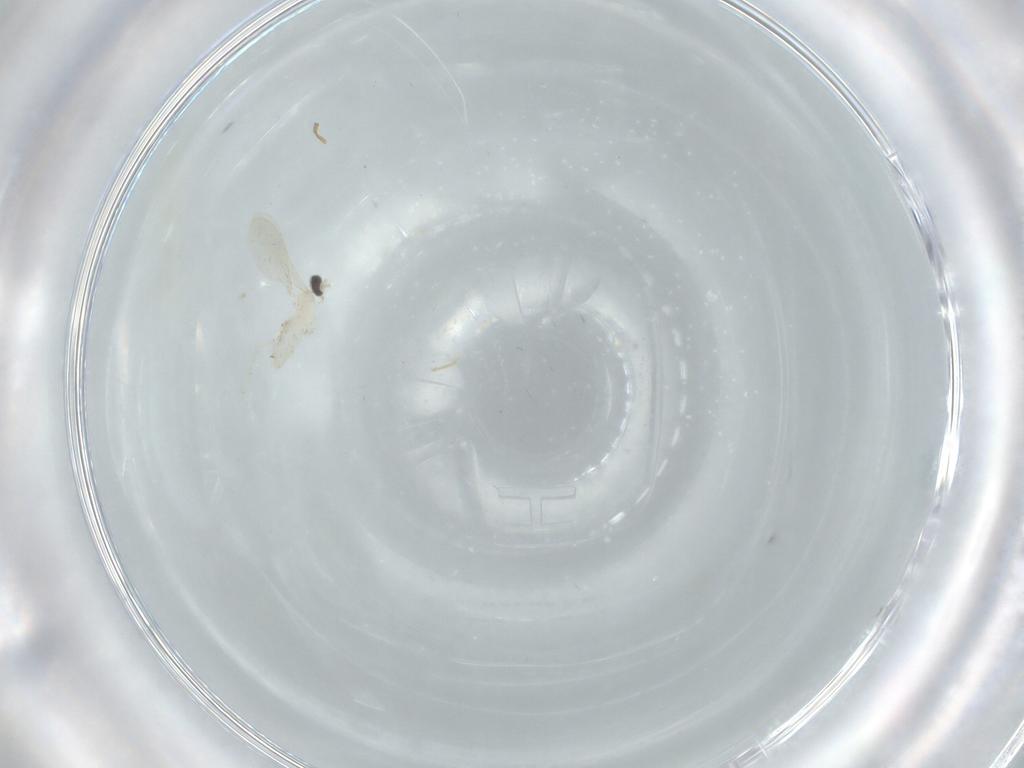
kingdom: Animalia
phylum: Arthropoda
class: Insecta
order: Diptera
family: Cecidomyiidae
